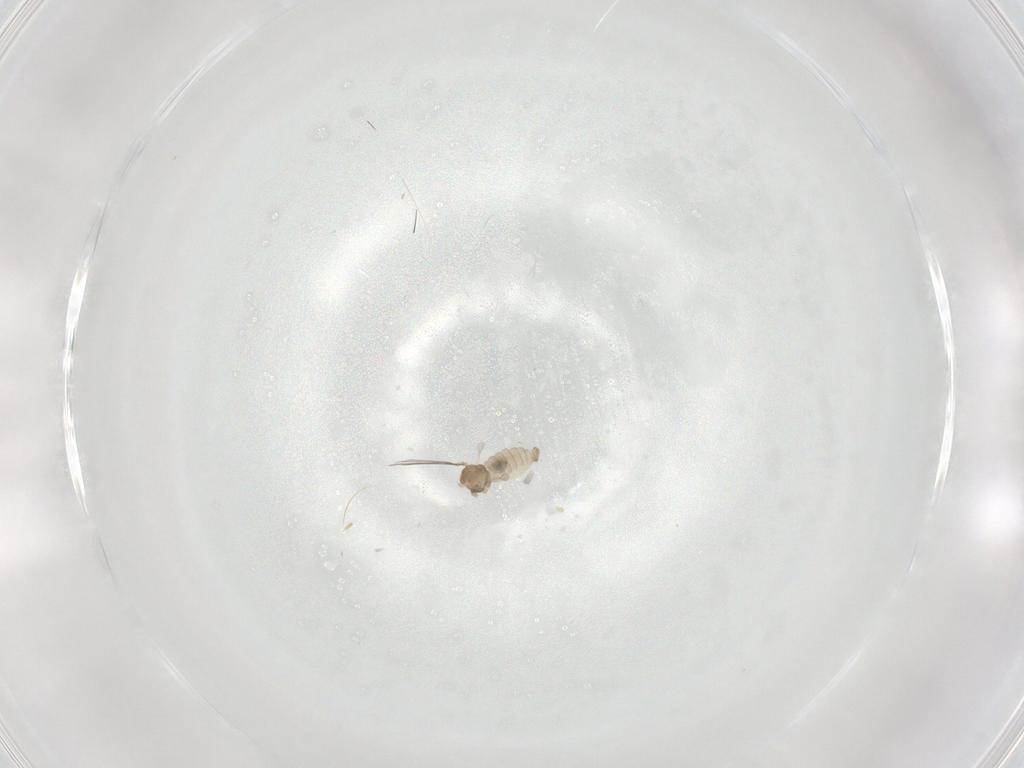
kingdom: Animalia
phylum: Arthropoda
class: Insecta
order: Diptera
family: Cecidomyiidae
